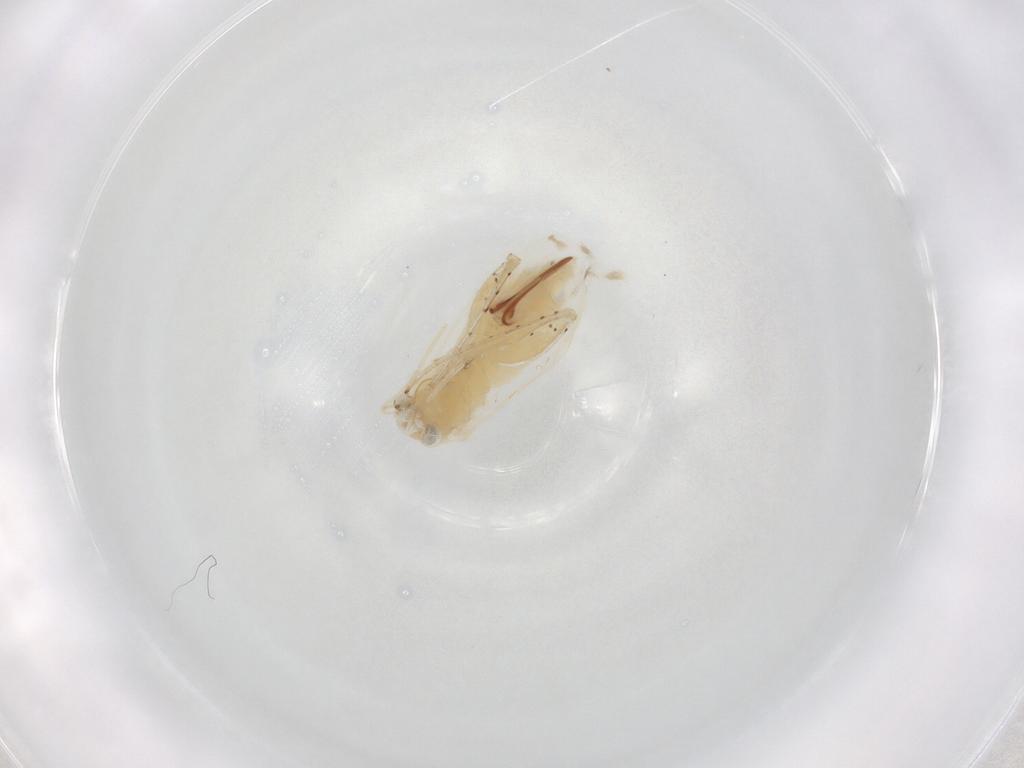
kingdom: Animalia
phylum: Arthropoda
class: Insecta
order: Hemiptera
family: Miridae
